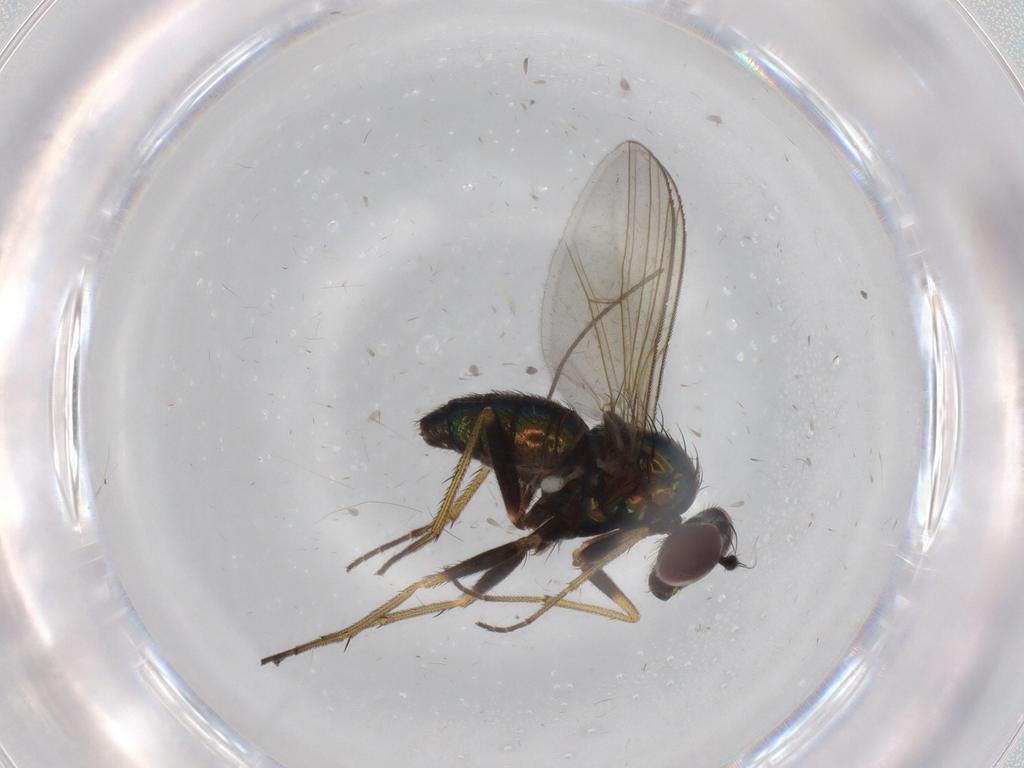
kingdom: Animalia
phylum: Arthropoda
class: Insecta
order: Diptera
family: Dolichopodidae
